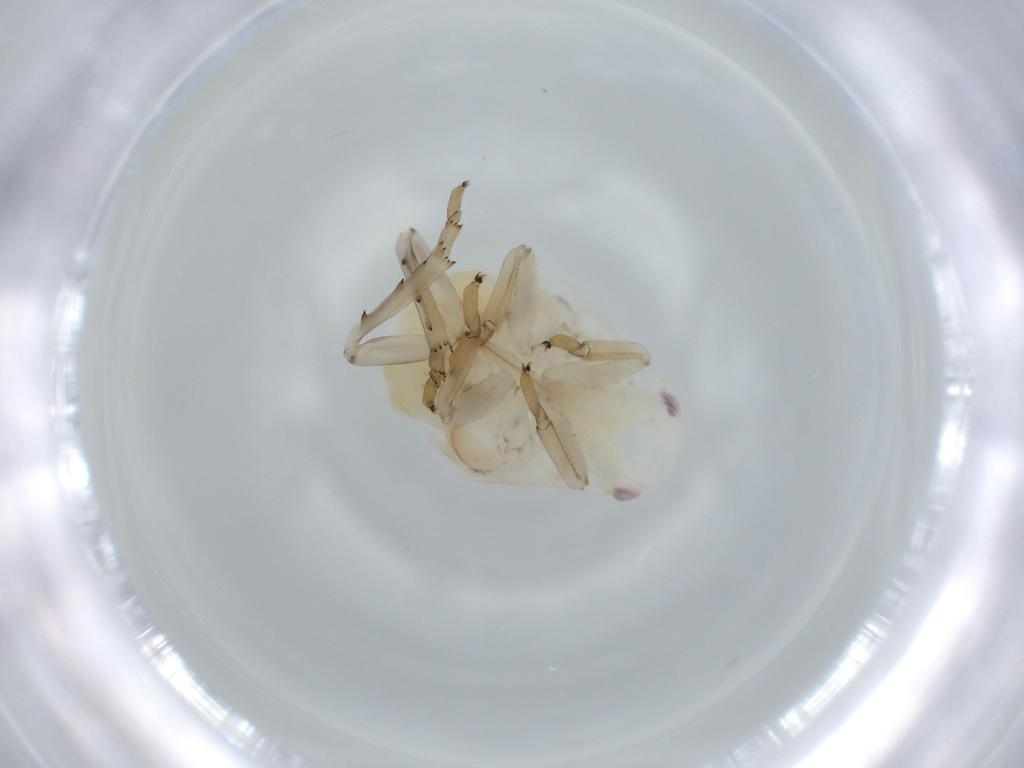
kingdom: Animalia
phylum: Arthropoda
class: Insecta
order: Hemiptera
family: Flatidae
